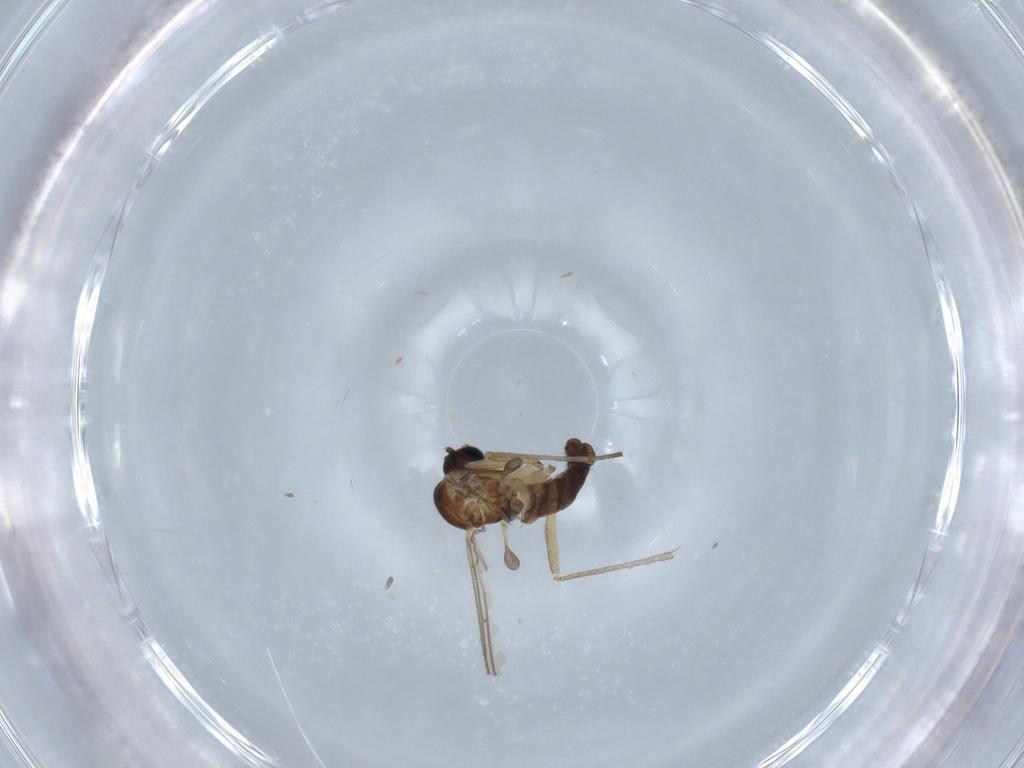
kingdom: Animalia
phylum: Arthropoda
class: Insecta
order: Diptera
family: Sciaridae
